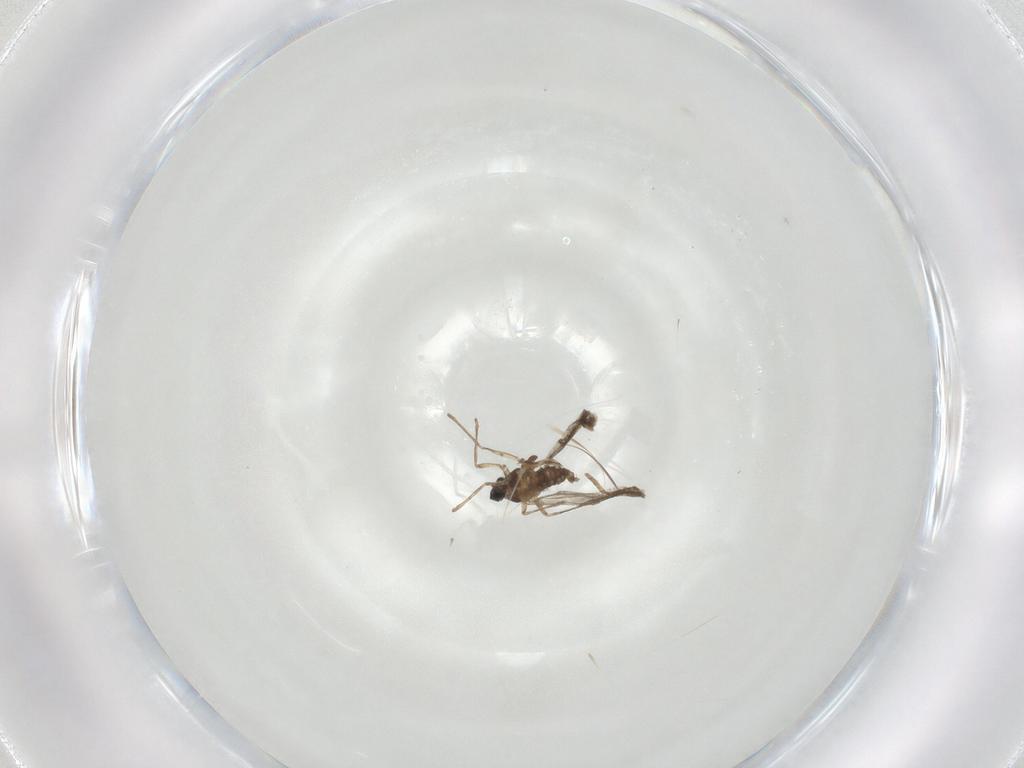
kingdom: Animalia
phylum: Arthropoda
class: Insecta
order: Diptera
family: Cecidomyiidae
